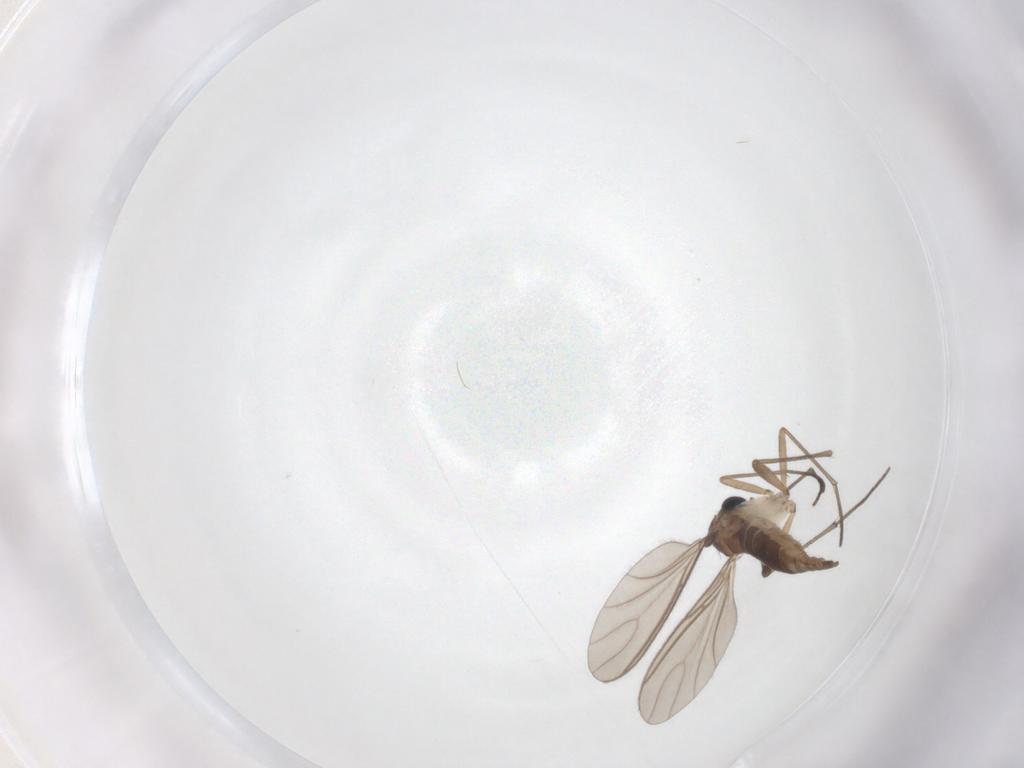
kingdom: Animalia
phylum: Arthropoda
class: Insecta
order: Diptera
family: Sciaridae
